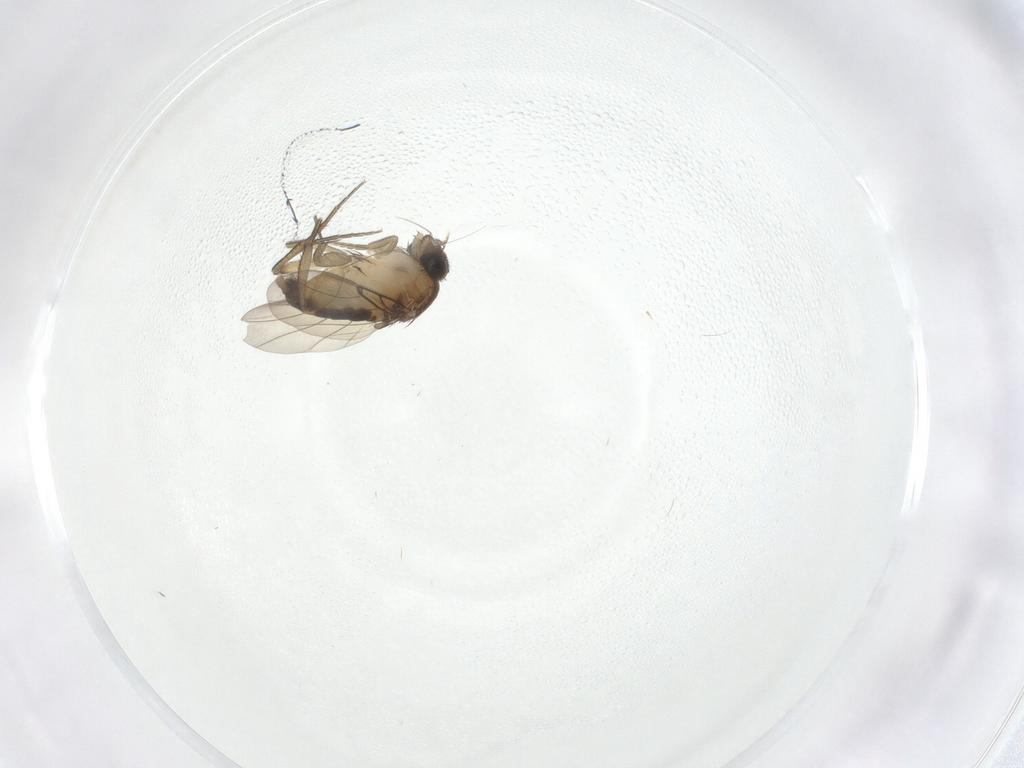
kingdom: Animalia
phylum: Arthropoda
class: Insecta
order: Diptera
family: Phoridae
